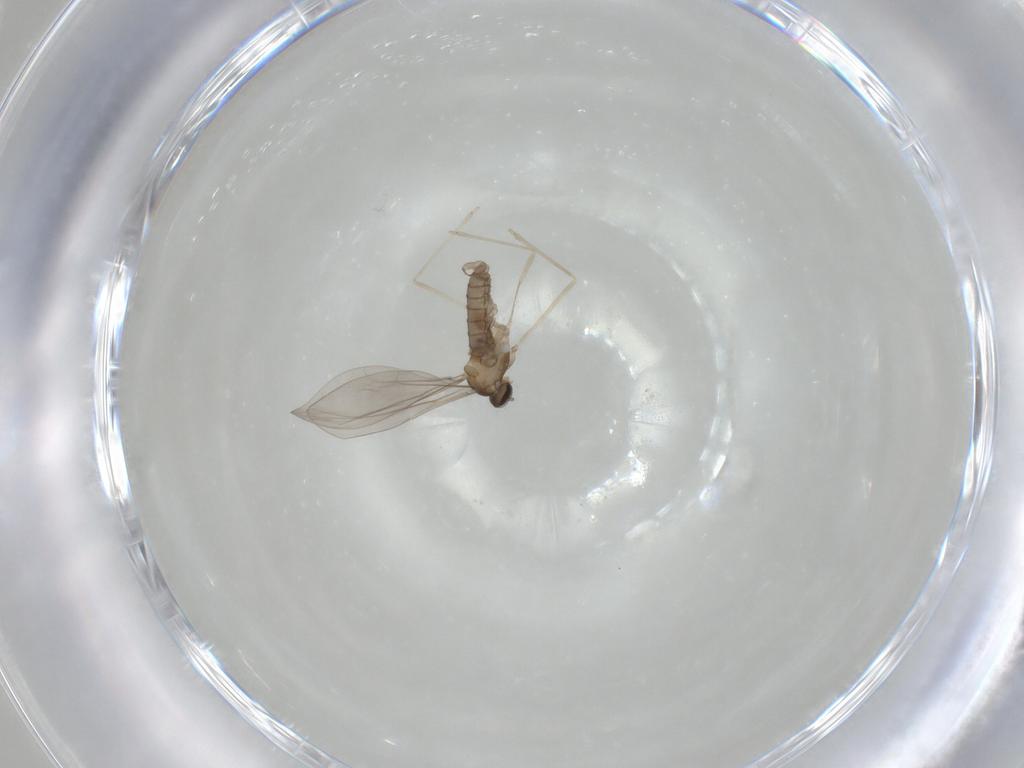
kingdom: Animalia
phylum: Arthropoda
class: Insecta
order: Diptera
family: Cecidomyiidae
